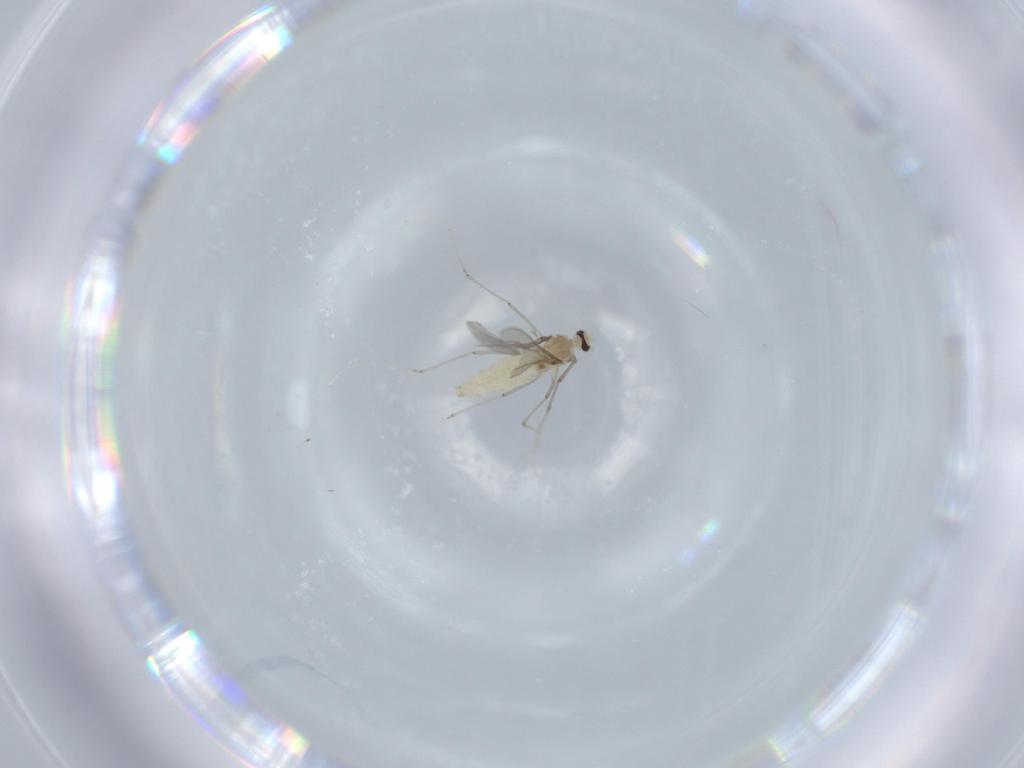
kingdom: Animalia
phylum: Arthropoda
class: Insecta
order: Diptera
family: Cecidomyiidae
